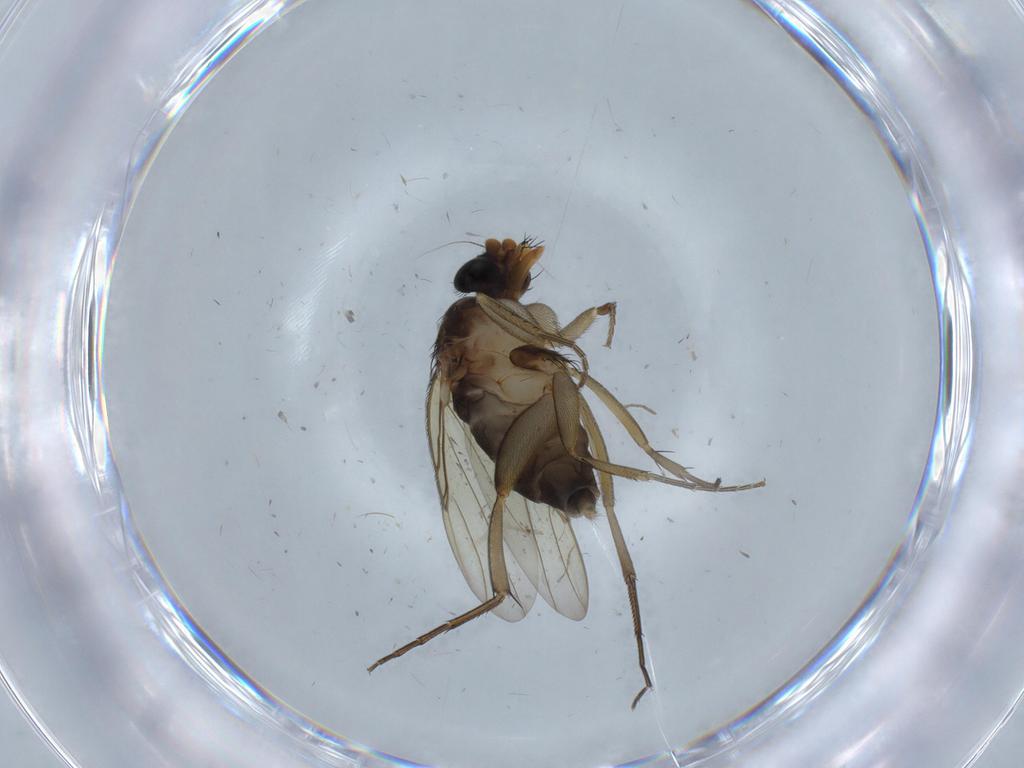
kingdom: Animalia
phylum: Arthropoda
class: Insecta
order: Diptera
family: Phoridae
